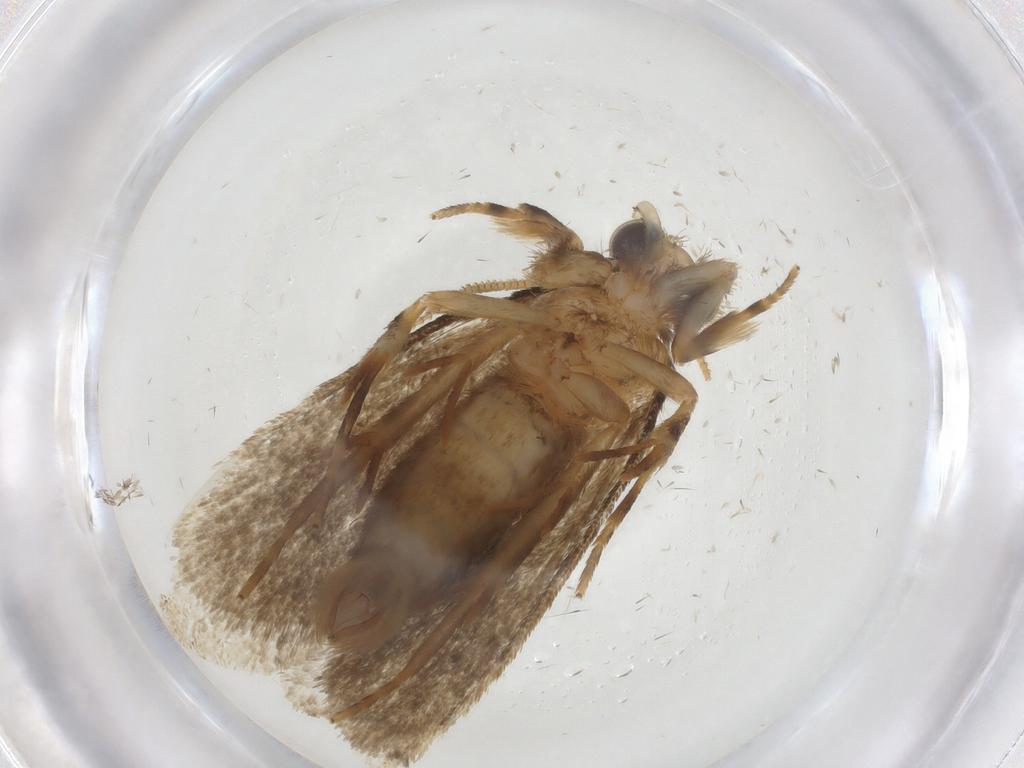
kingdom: Animalia
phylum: Arthropoda
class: Insecta
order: Lepidoptera
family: Tineidae
